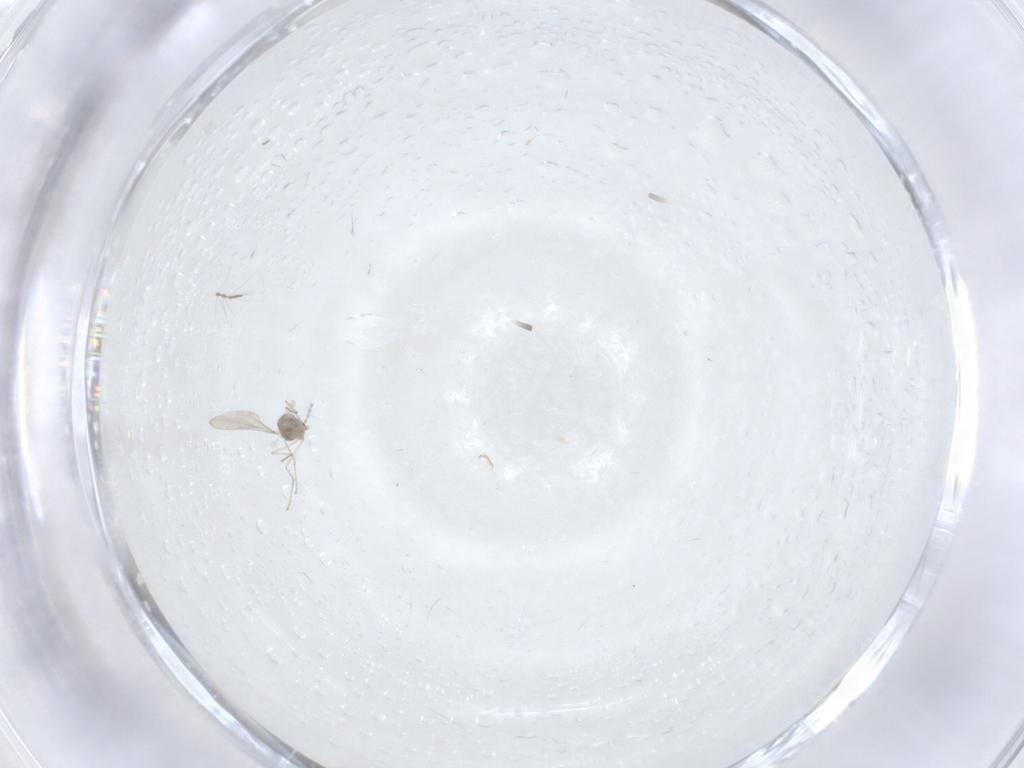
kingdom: Animalia
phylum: Arthropoda
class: Insecta
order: Diptera
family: Cecidomyiidae
